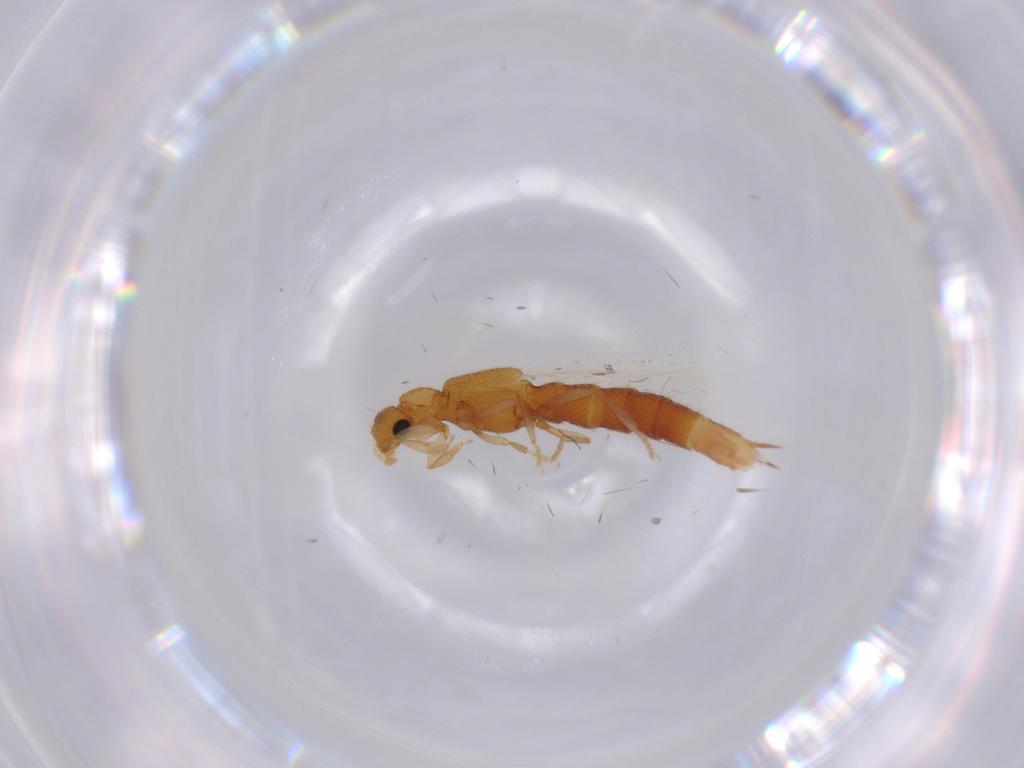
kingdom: Animalia
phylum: Arthropoda
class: Insecta
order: Coleoptera
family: Staphylinidae
